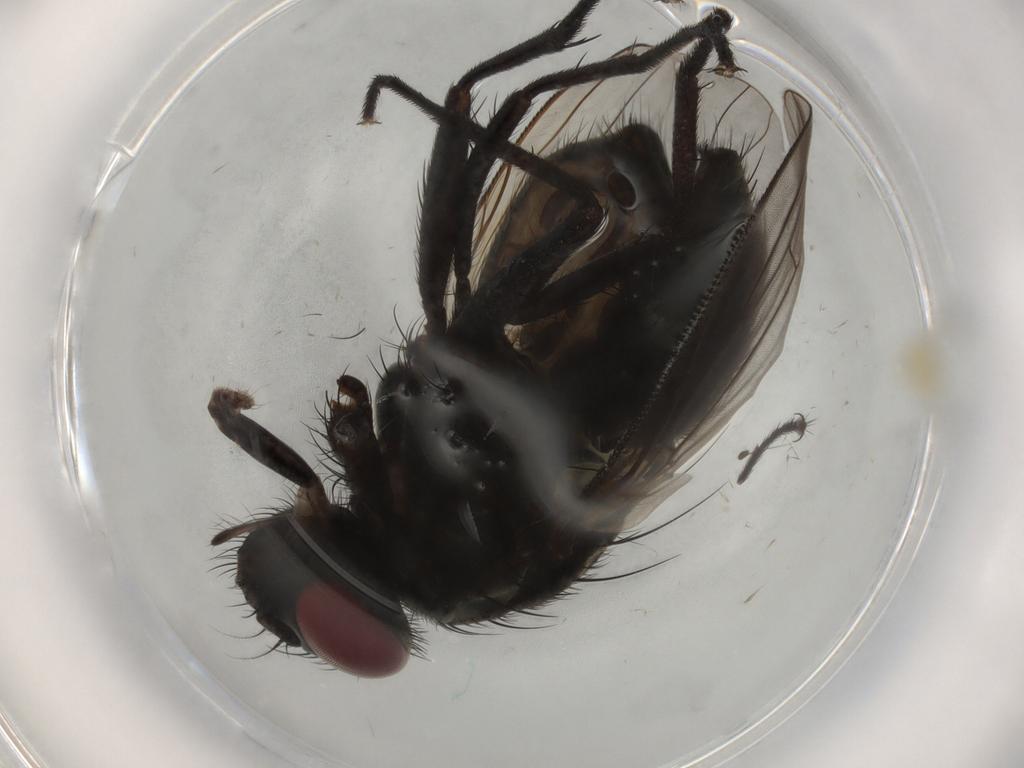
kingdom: Animalia
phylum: Arthropoda
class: Insecta
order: Diptera
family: Muscidae
